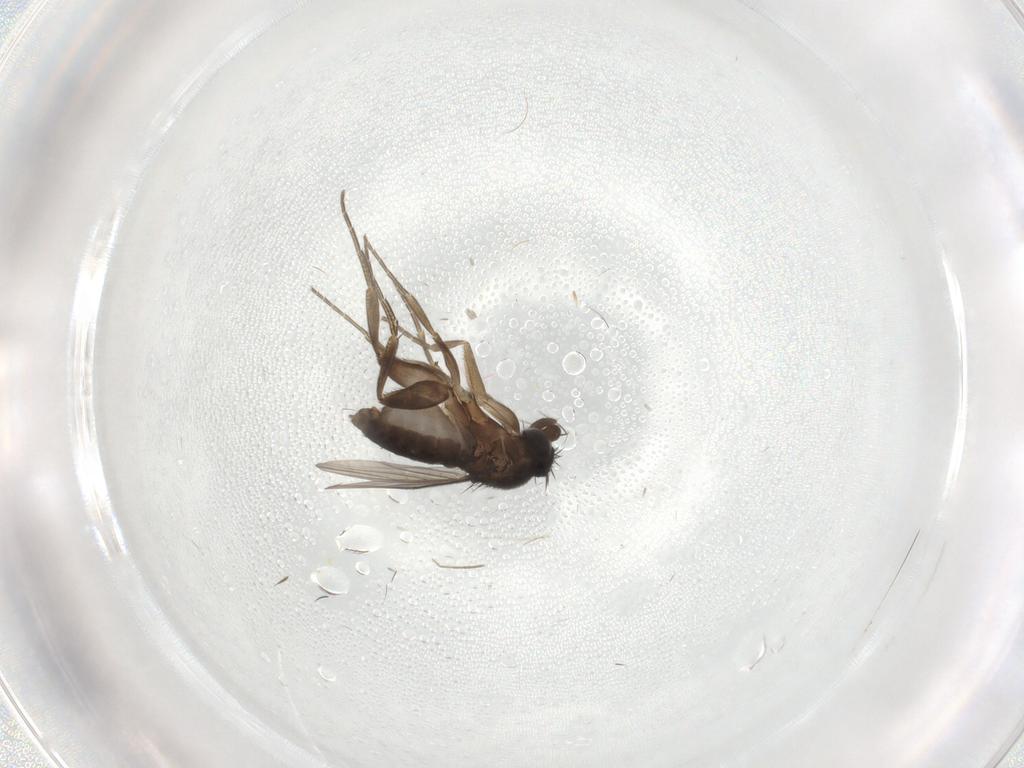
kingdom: Animalia
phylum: Arthropoda
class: Insecta
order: Diptera
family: Phoridae
